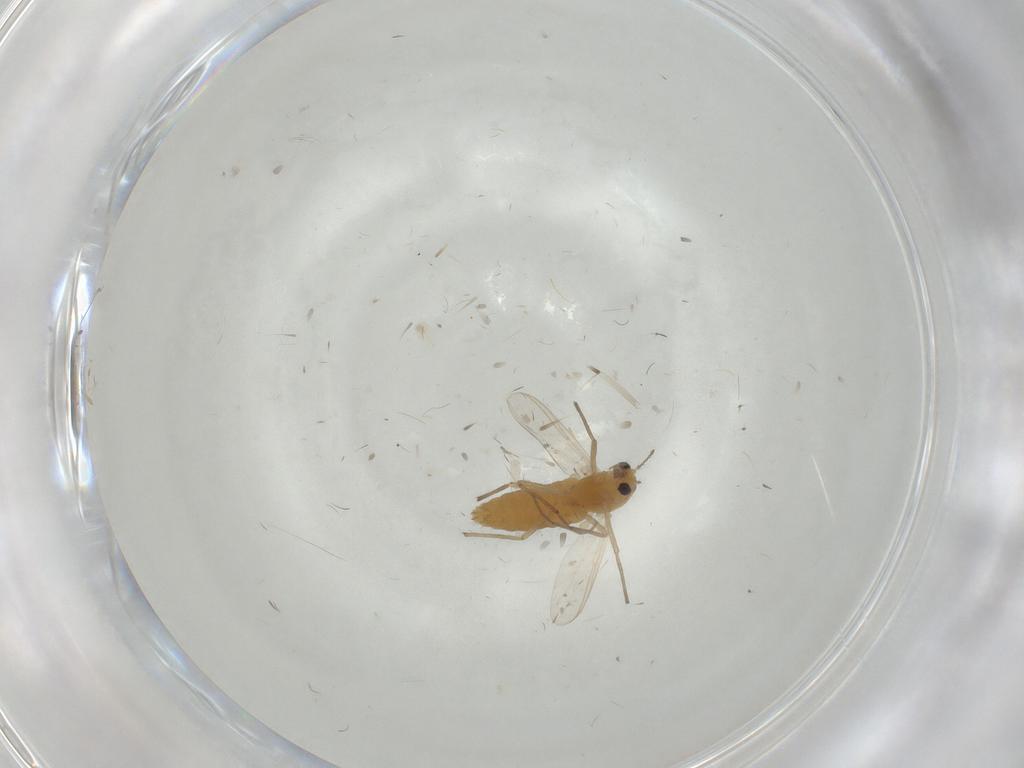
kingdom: Animalia
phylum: Arthropoda
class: Insecta
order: Diptera
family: Chironomidae
